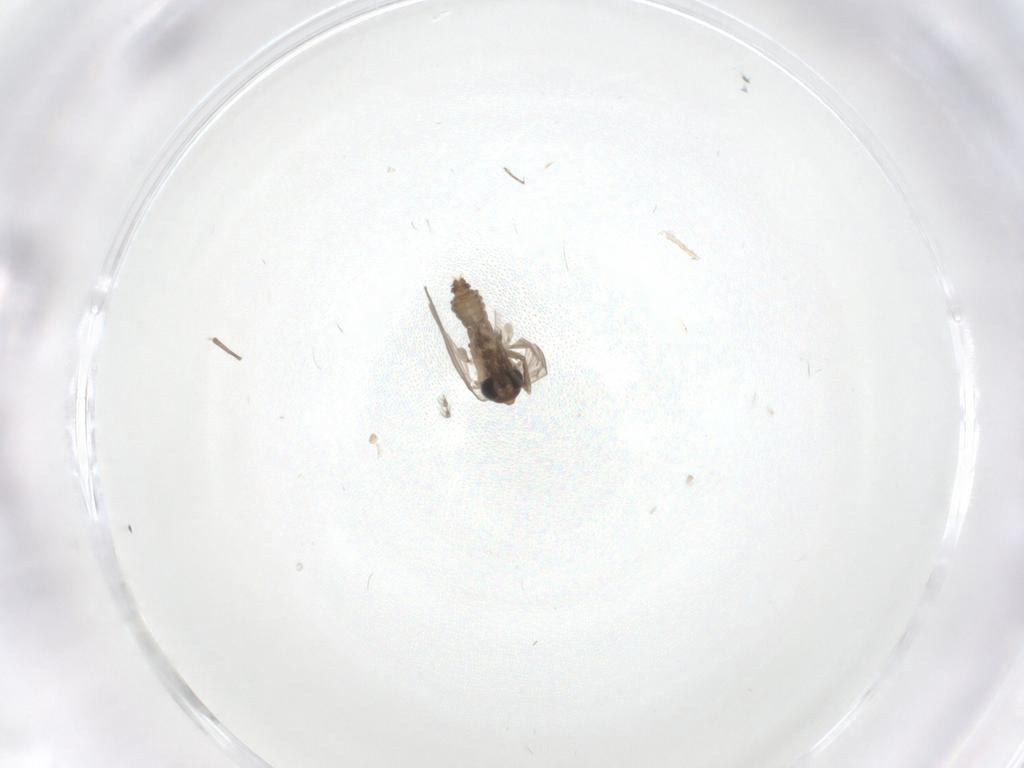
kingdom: Animalia
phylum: Arthropoda
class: Insecta
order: Diptera
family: Psychodidae
